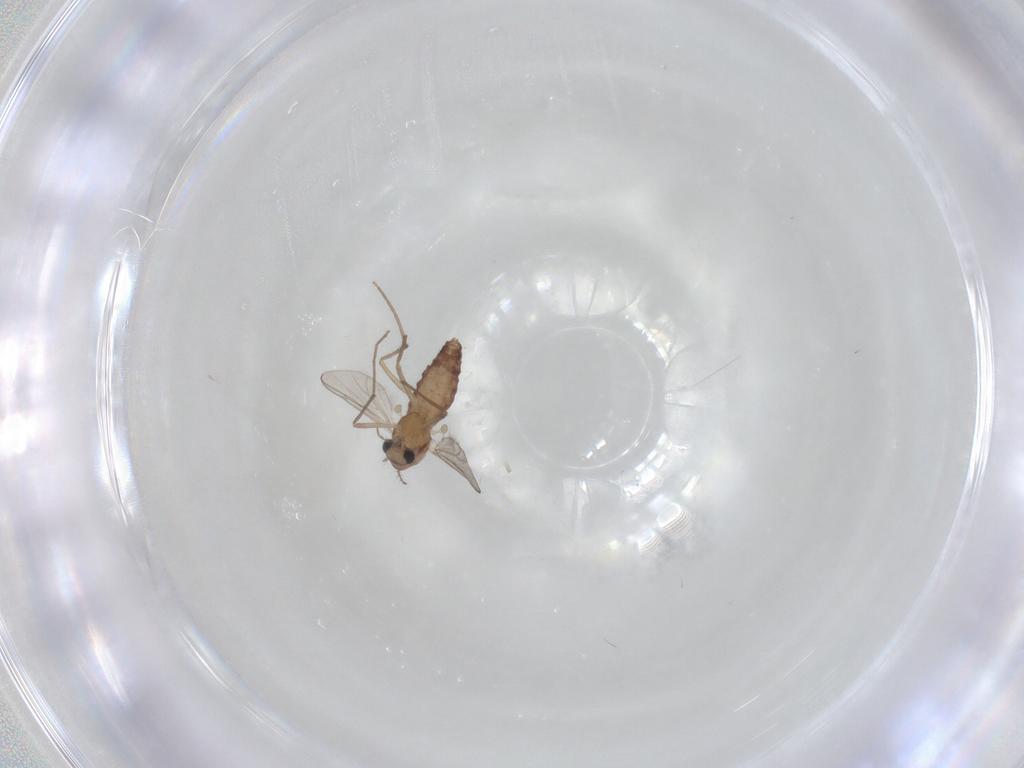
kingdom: Animalia
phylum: Arthropoda
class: Insecta
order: Diptera
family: Chironomidae
